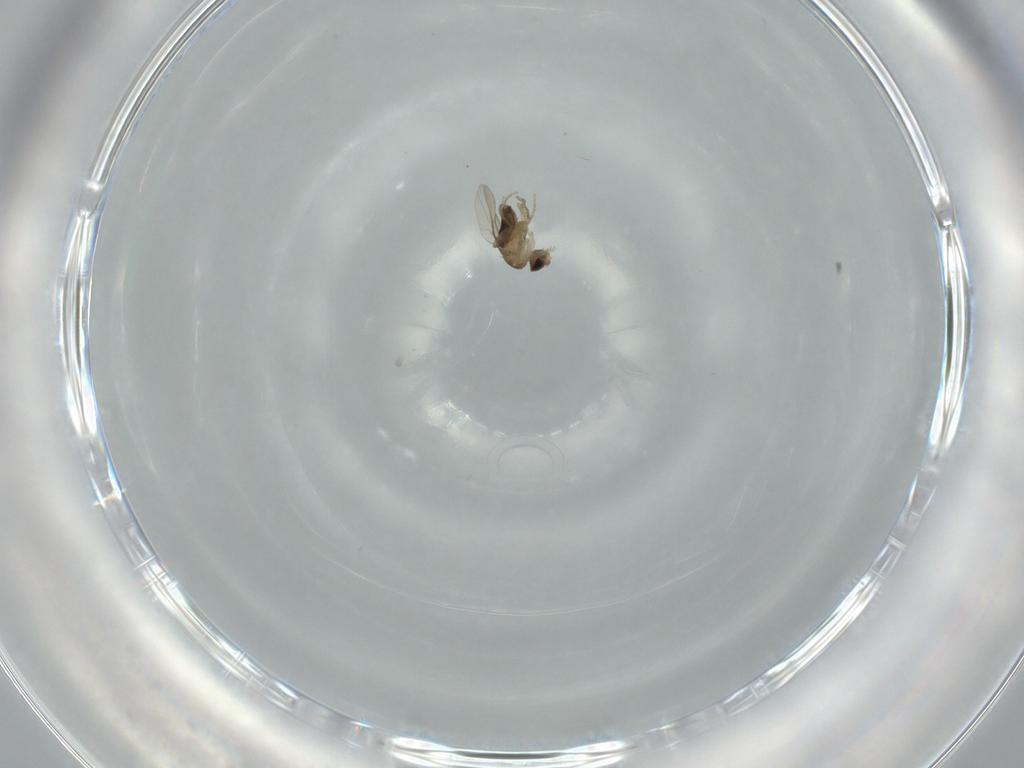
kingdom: Animalia
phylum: Arthropoda
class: Insecta
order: Diptera
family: Phoridae
